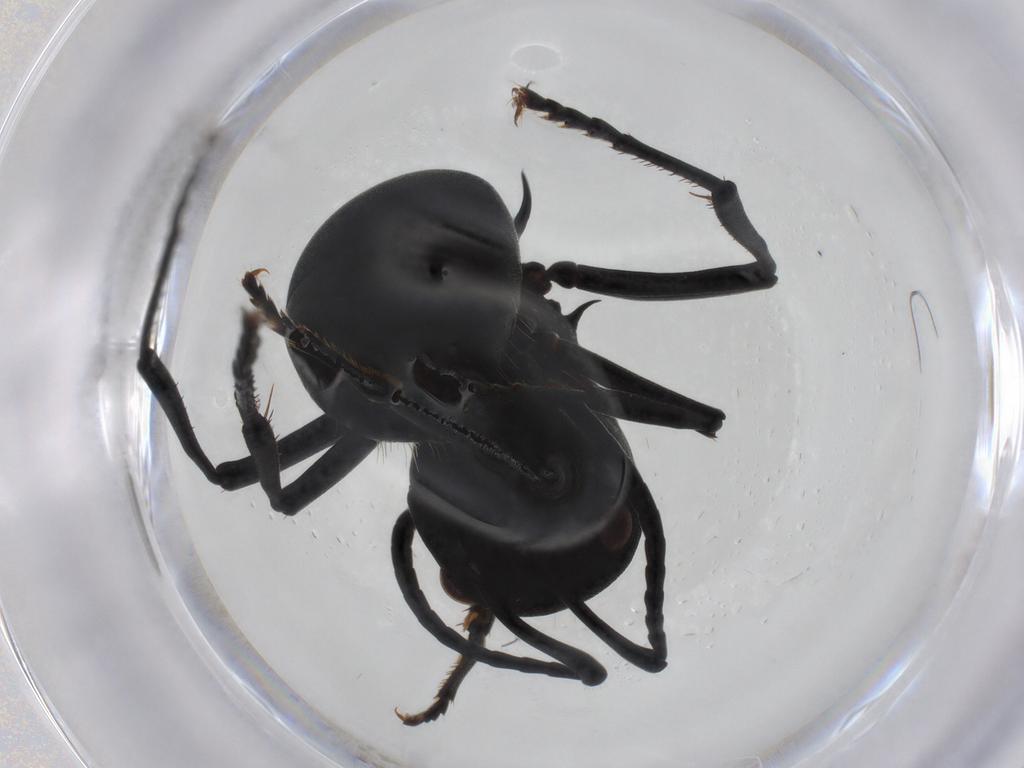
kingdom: Animalia
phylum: Arthropoda
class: Insecta
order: Hymenoptera
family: Formicidae
